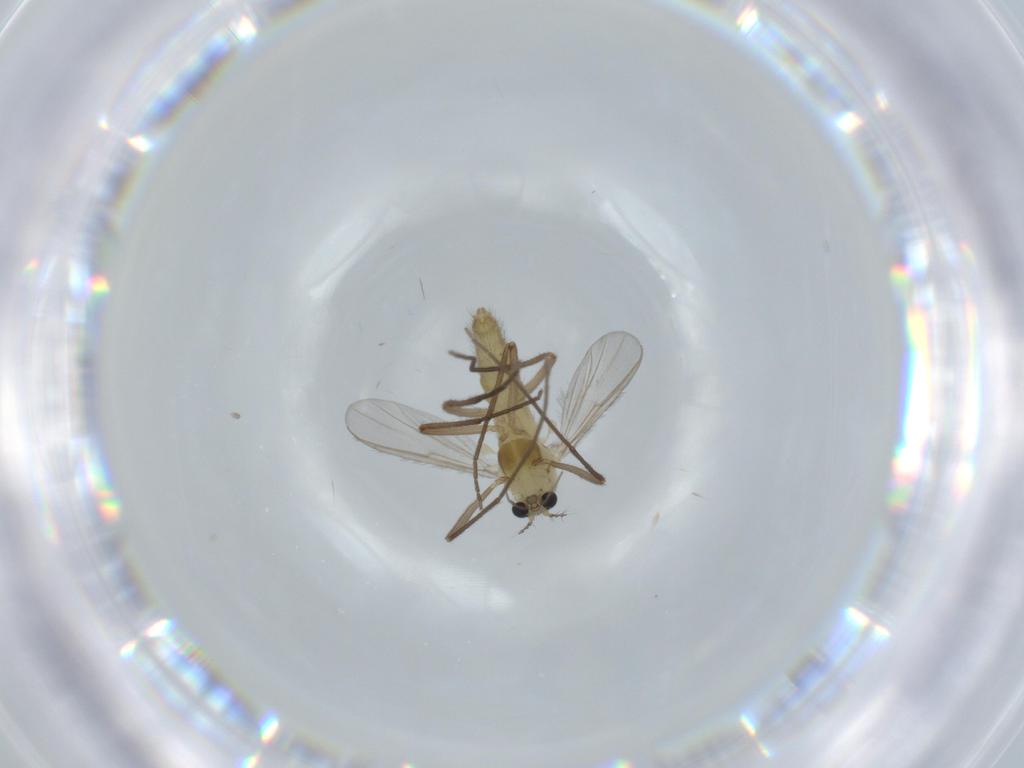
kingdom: Animalia
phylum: Arthropoda
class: Insecta
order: Diptera
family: Chironomidae
